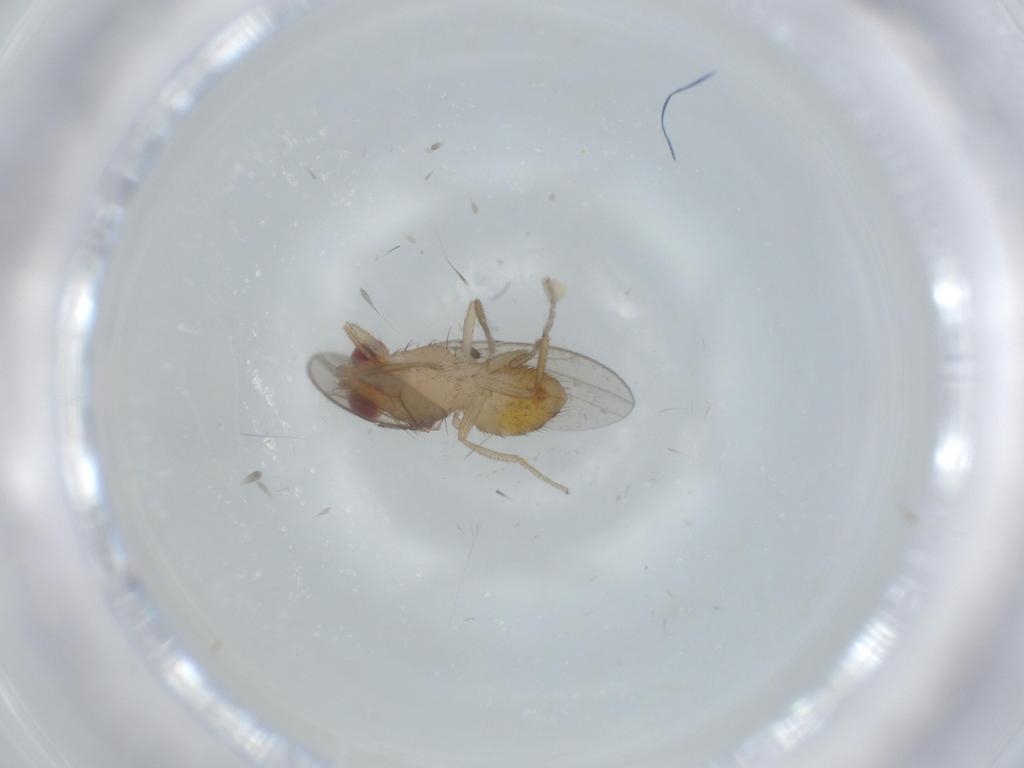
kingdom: Animalia
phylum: Arthropoda
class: Insecta
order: Diptera
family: Drosophilidae
